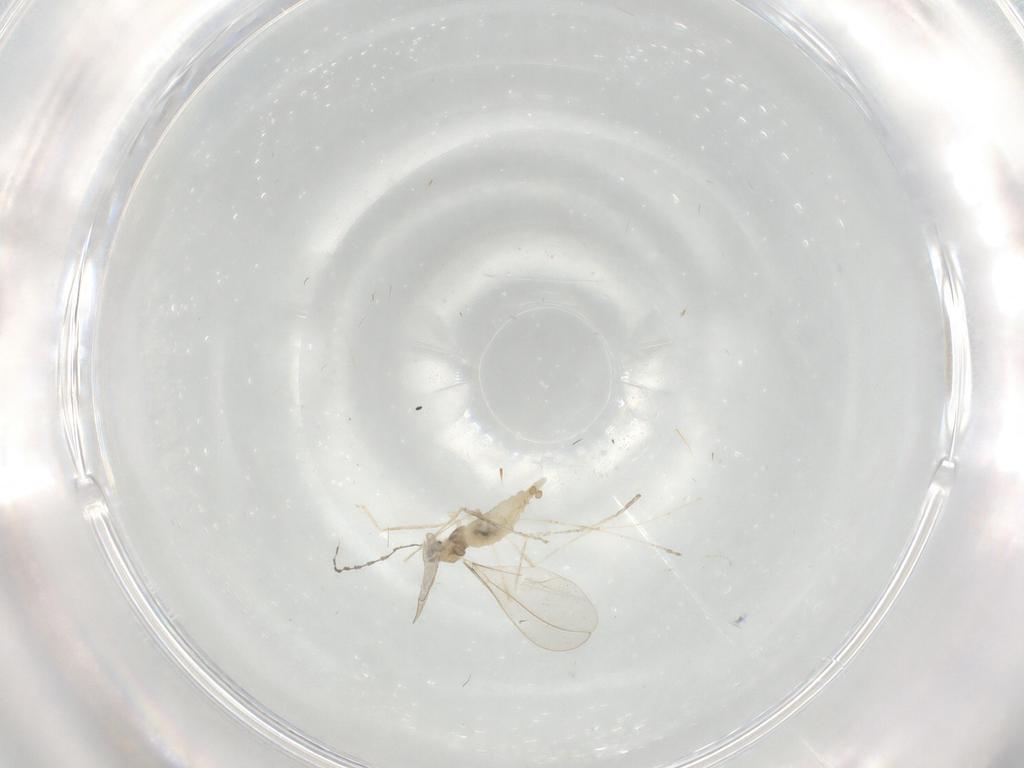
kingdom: Animalia
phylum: Arthropoda
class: Insecta
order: Diptera
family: Cecidomyiidae
